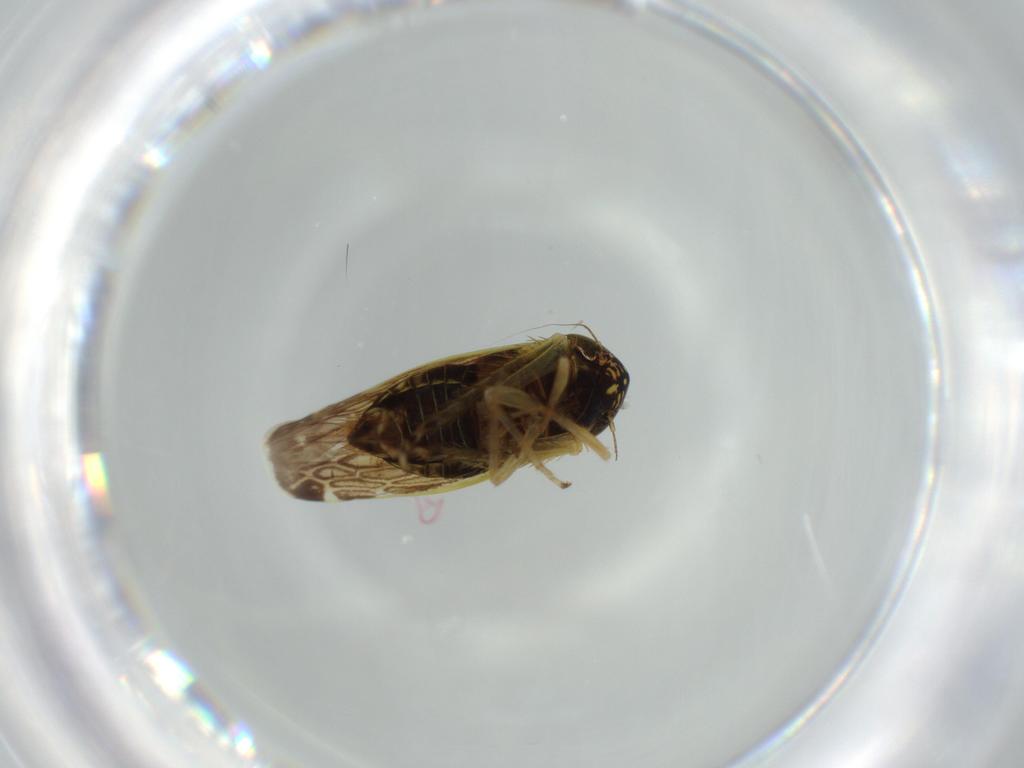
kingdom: Animalia
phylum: Arthropoda
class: Insecta
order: Hemiptera
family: Cicadellidae
